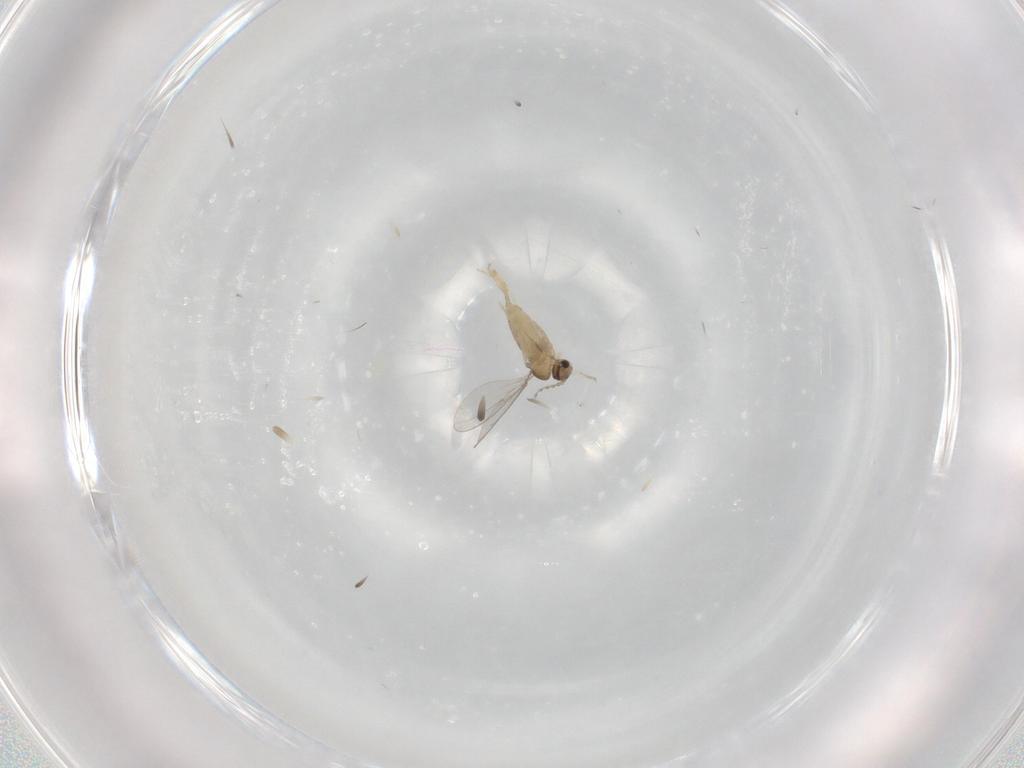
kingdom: Animalia
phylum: Arthropoda
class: Insecta
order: Diptera
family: Cecidomyiidae
